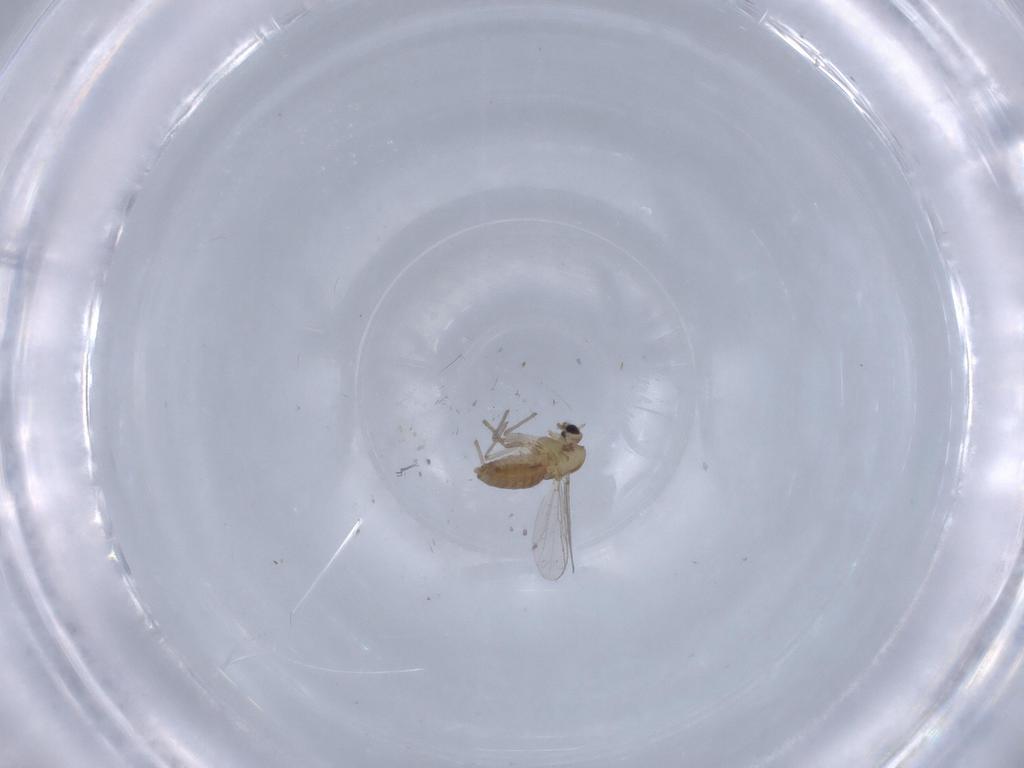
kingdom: Animalia
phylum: Arthropoda
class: Insecta
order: Diptera
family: Chironomidae
